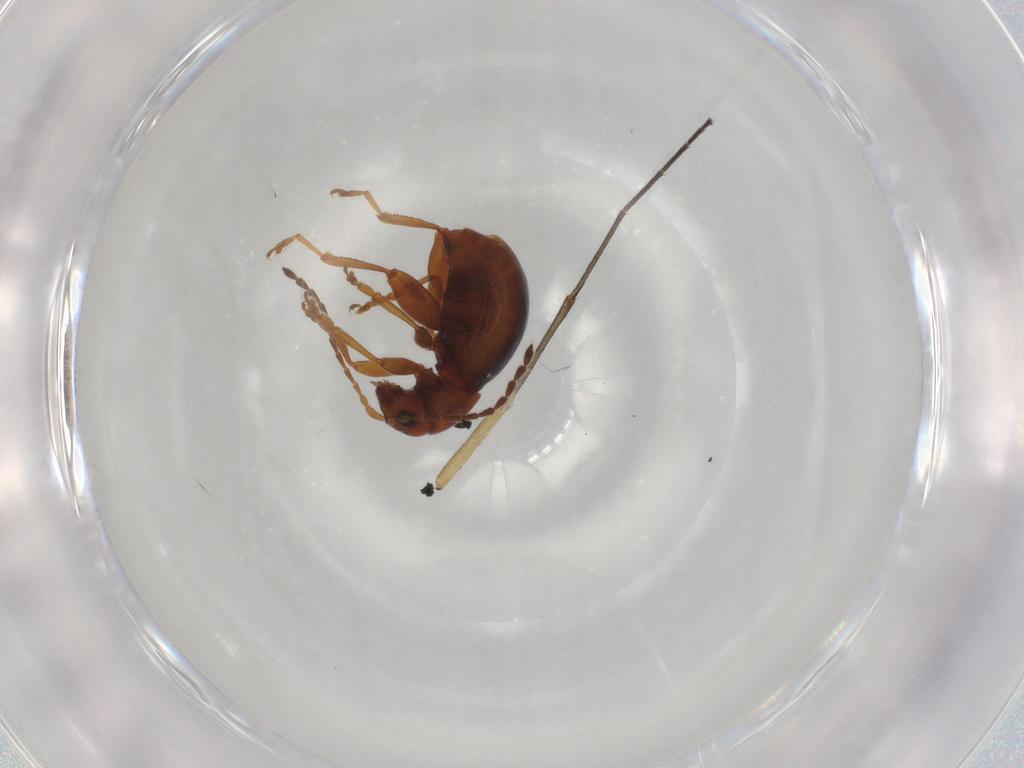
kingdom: Animalia
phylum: Arthropoda
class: Insecta
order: Coleoptera
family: Chrysomelidae
